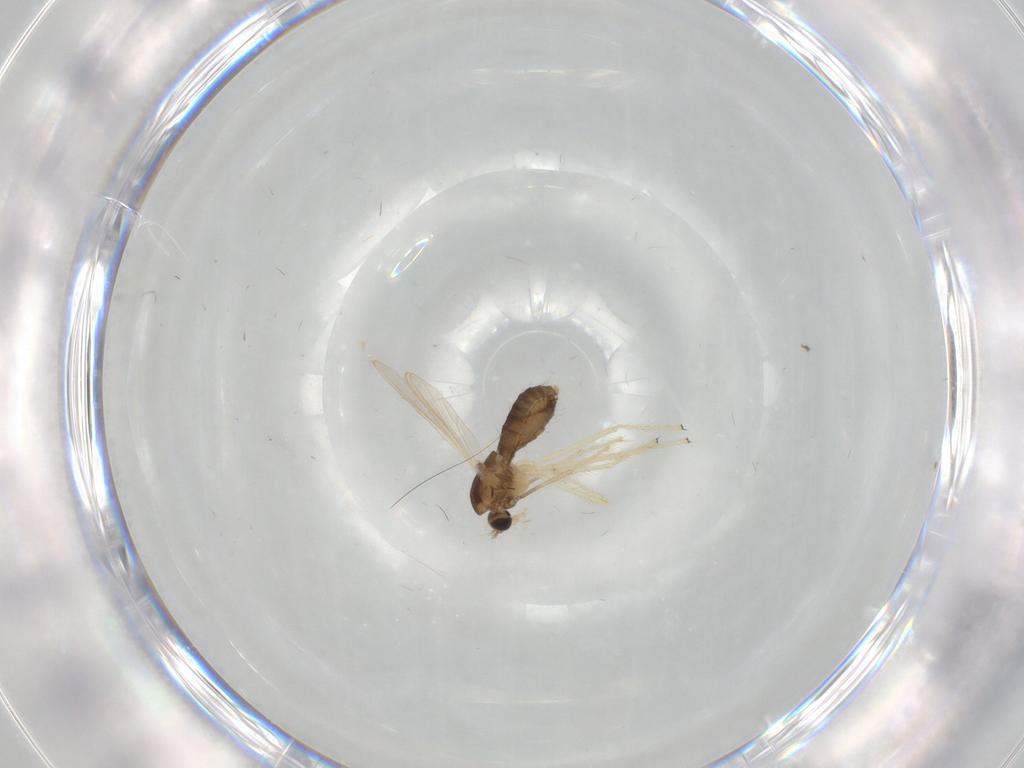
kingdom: Animalia
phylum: Arthropoda
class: Insecta
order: Diptera
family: Chironomidae
